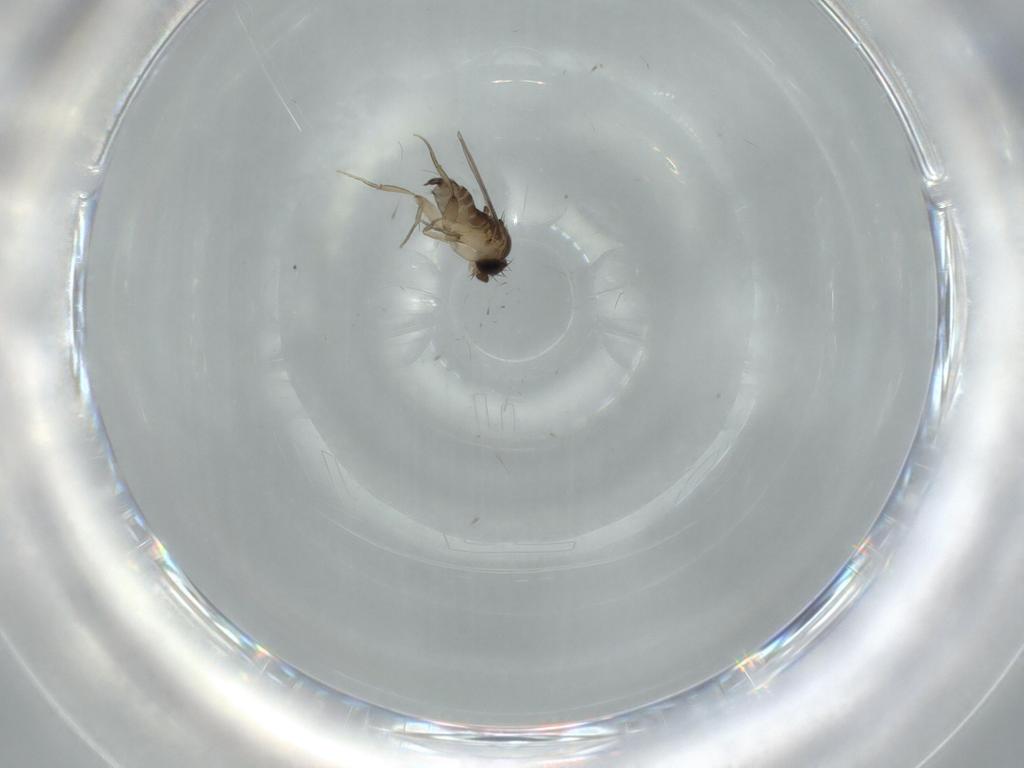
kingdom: Animalia
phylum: Arthropoda
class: Insecta
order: Diptera
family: Phoridae
